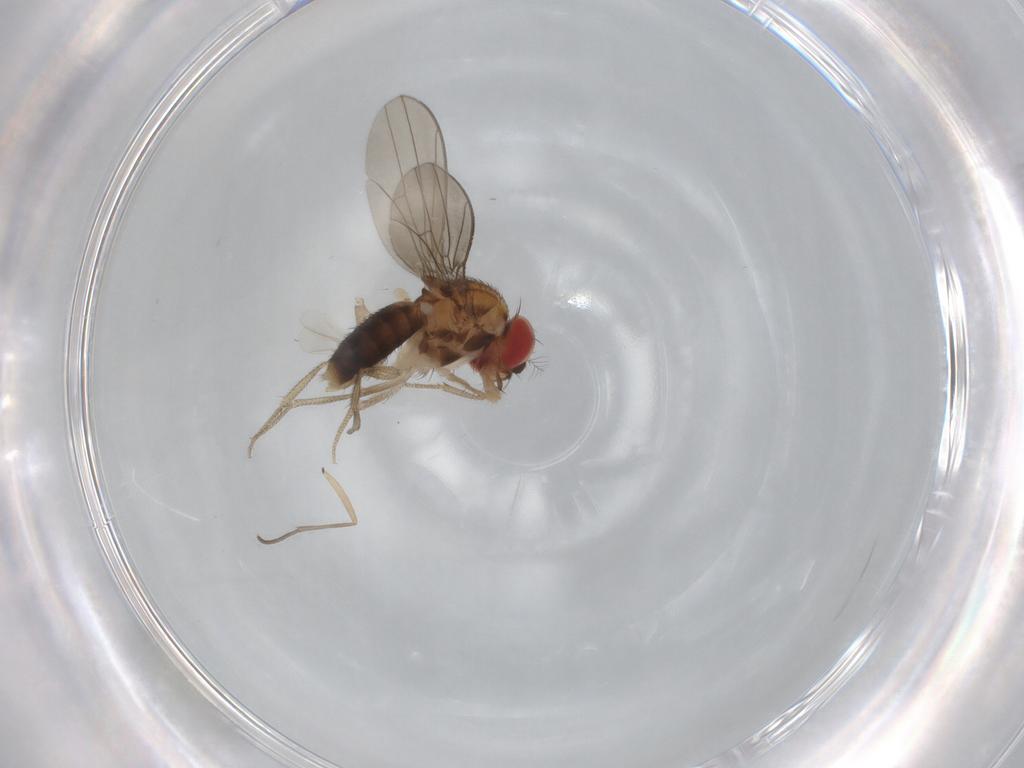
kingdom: Animalia
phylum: Arthropoda
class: Insecta
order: Diptera
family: Drosophilidae
